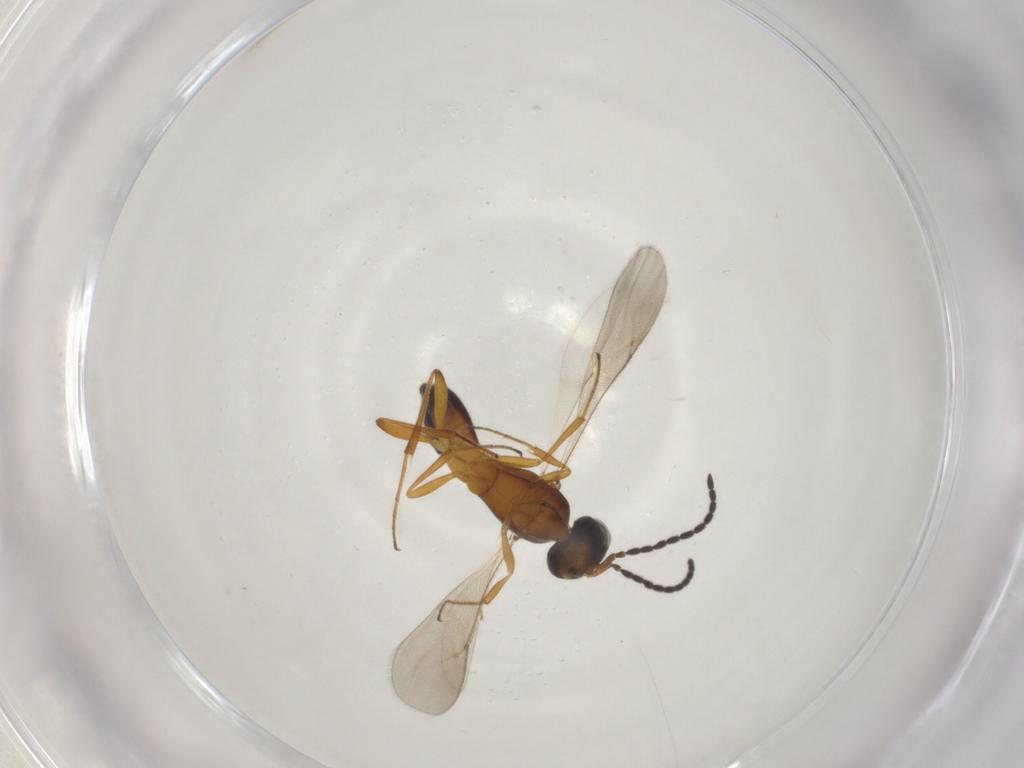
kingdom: Animalia
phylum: Arthropoda
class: Insecta
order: Hymenoptera
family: Scelionidae
